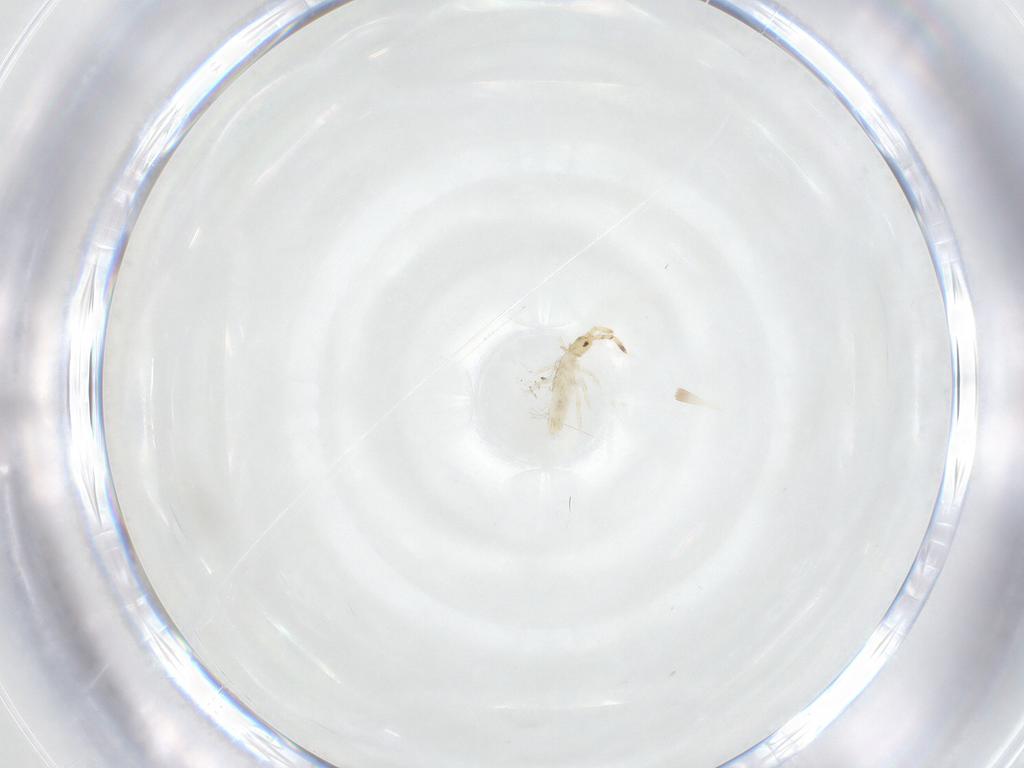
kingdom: Animalia
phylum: Arthropoda
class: Collembola
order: Entomobryomorpha
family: Entomobryidae
